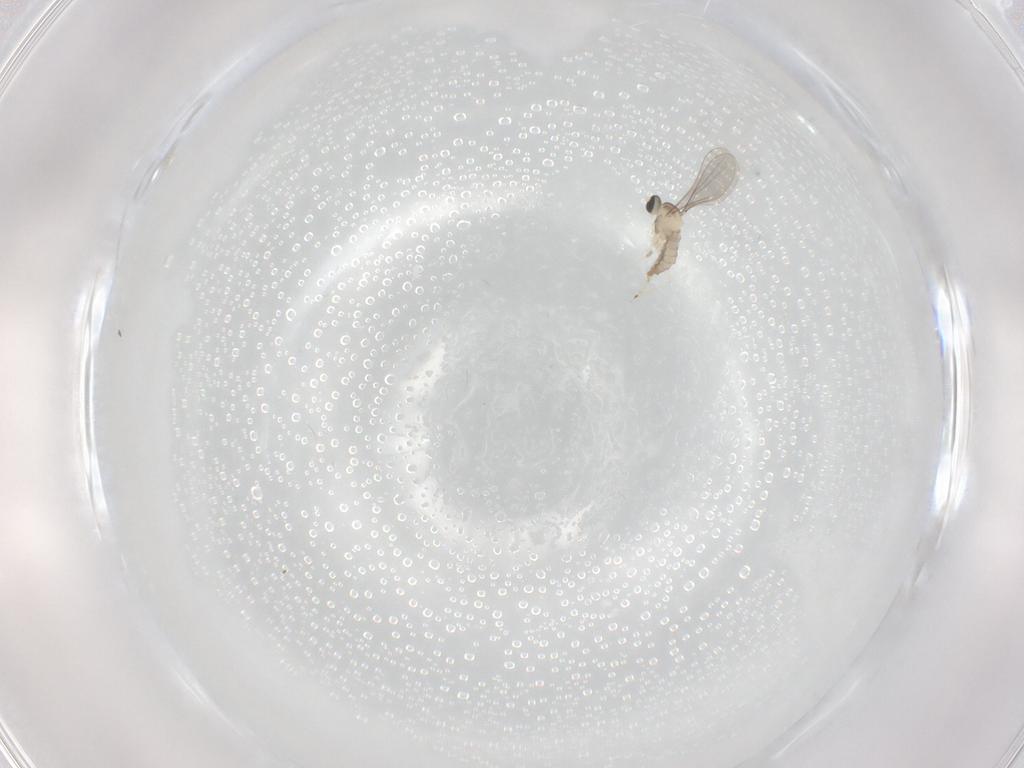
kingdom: Animalia
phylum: Arthropoda
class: Insecta
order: Diptera
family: Cecidomyiidae
